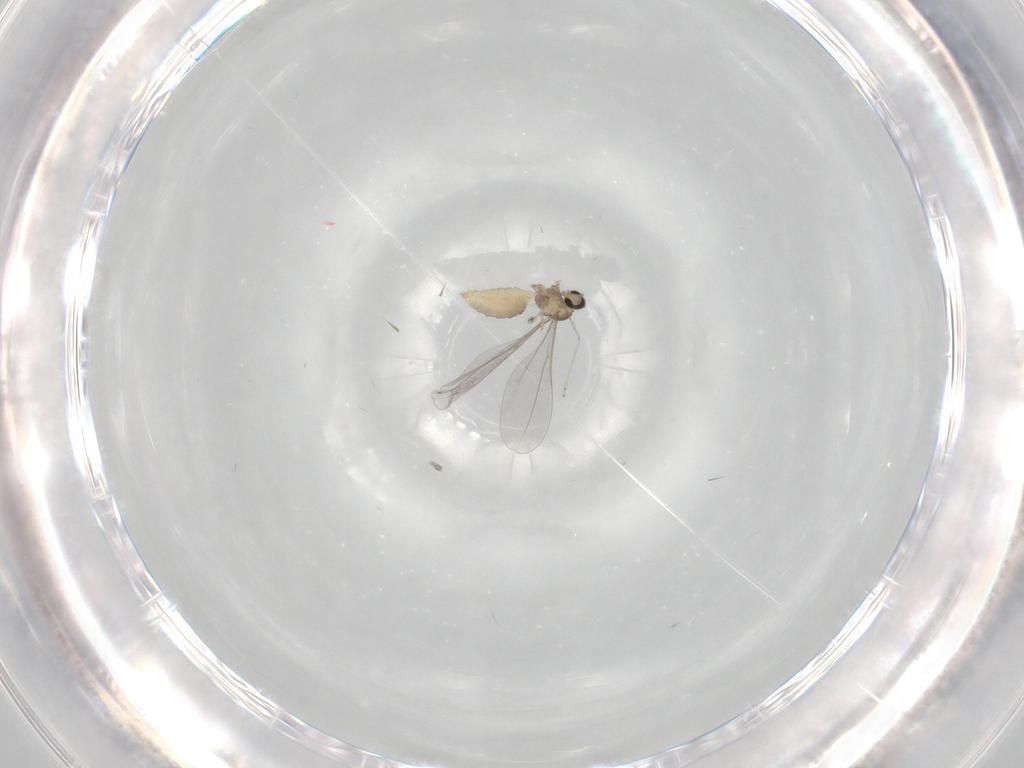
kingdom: Animalia
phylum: Arthropoda
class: Insecta
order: Diptera
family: Cecidomyiidae
